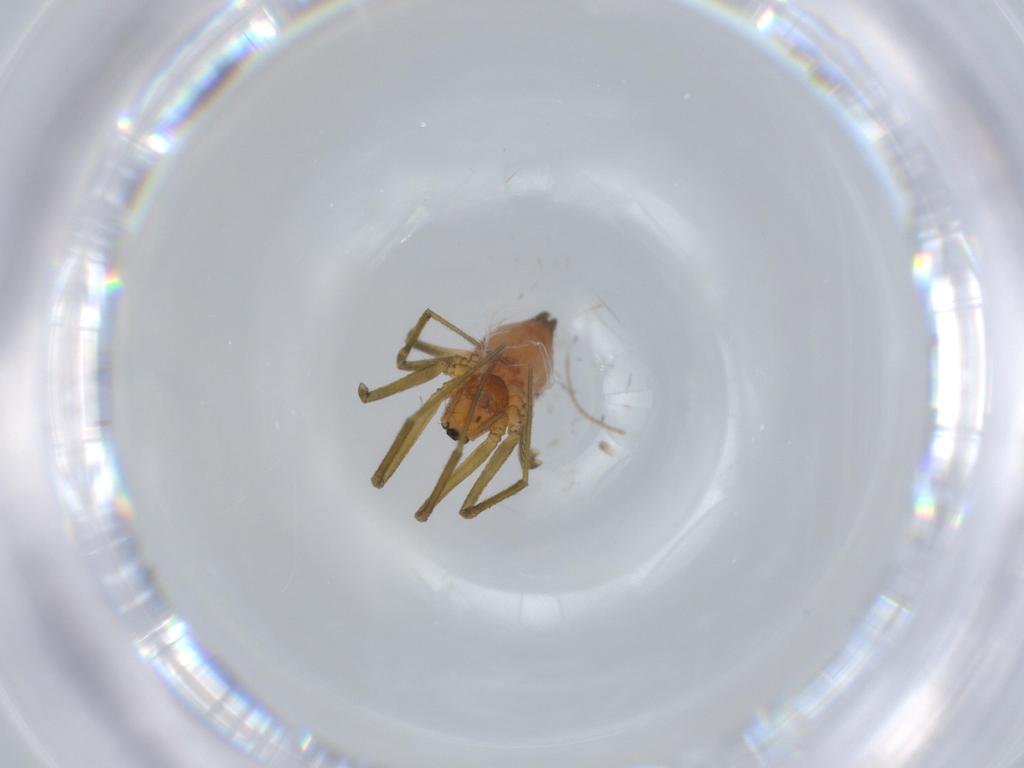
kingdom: Animalia
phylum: Arthropoda
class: Arachnida
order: Araneae
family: Linyphiidae
